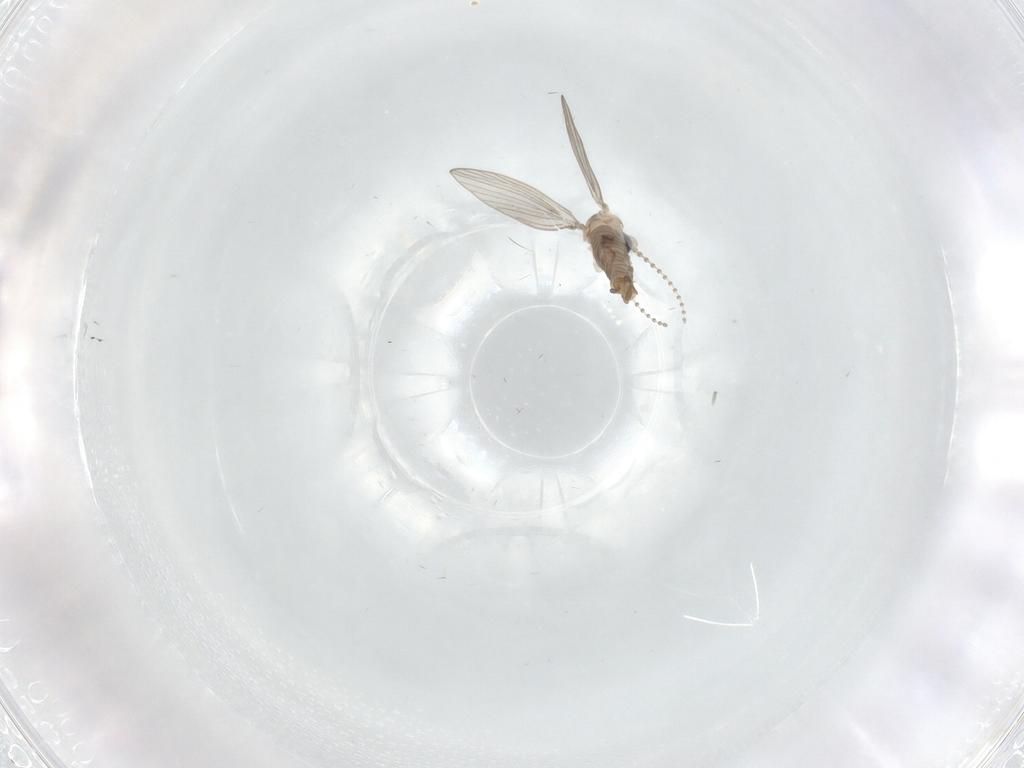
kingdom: Animalia
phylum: Arthropoda
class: Insecta
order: Diptera
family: Psychodidae
